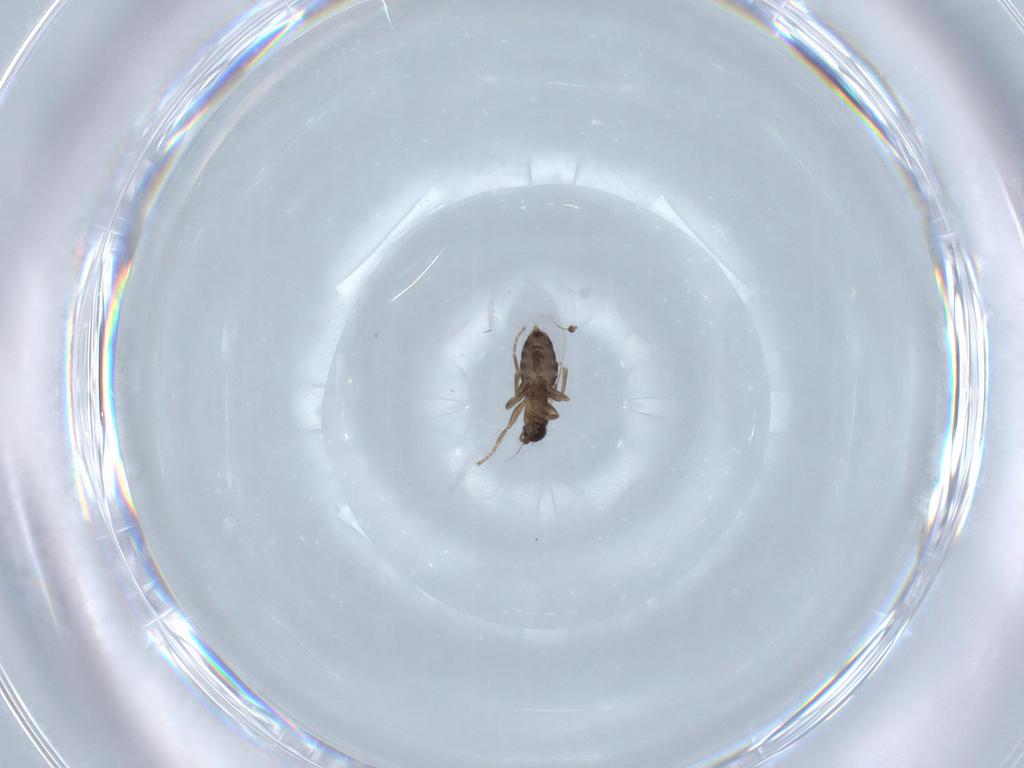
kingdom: Animalia
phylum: Arthropoda
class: Insecta
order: Diptera
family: Phoridae
